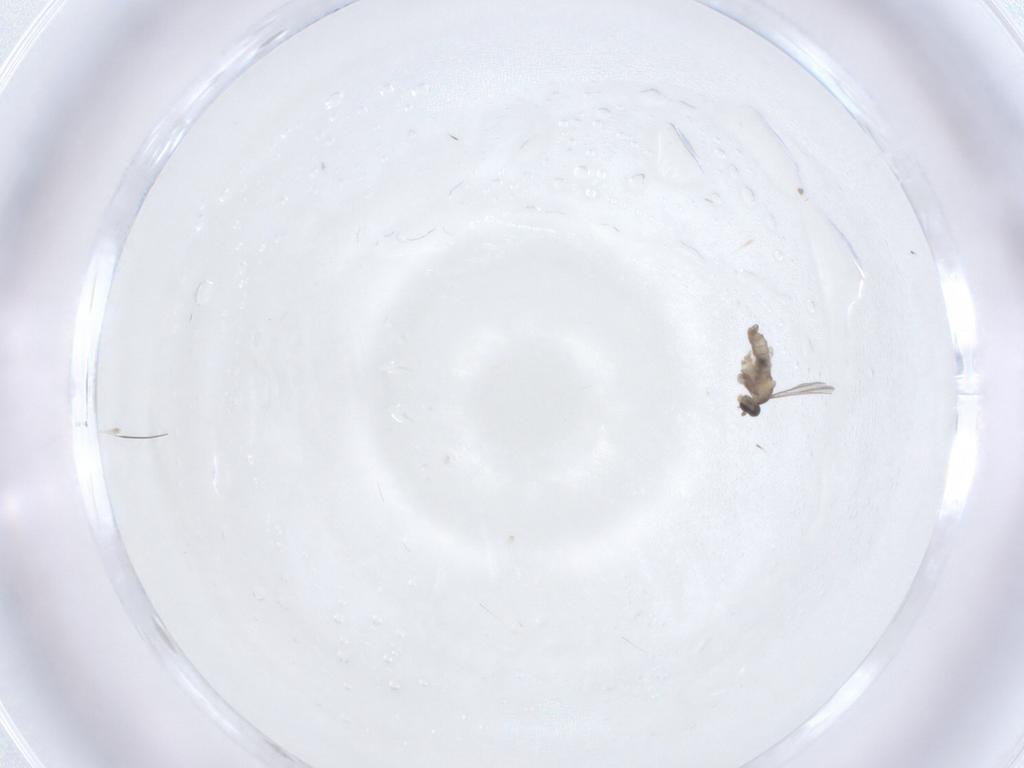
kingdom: Animalia
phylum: Arthropoda
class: Insecta
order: Diptera
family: Cecidomyiidae
